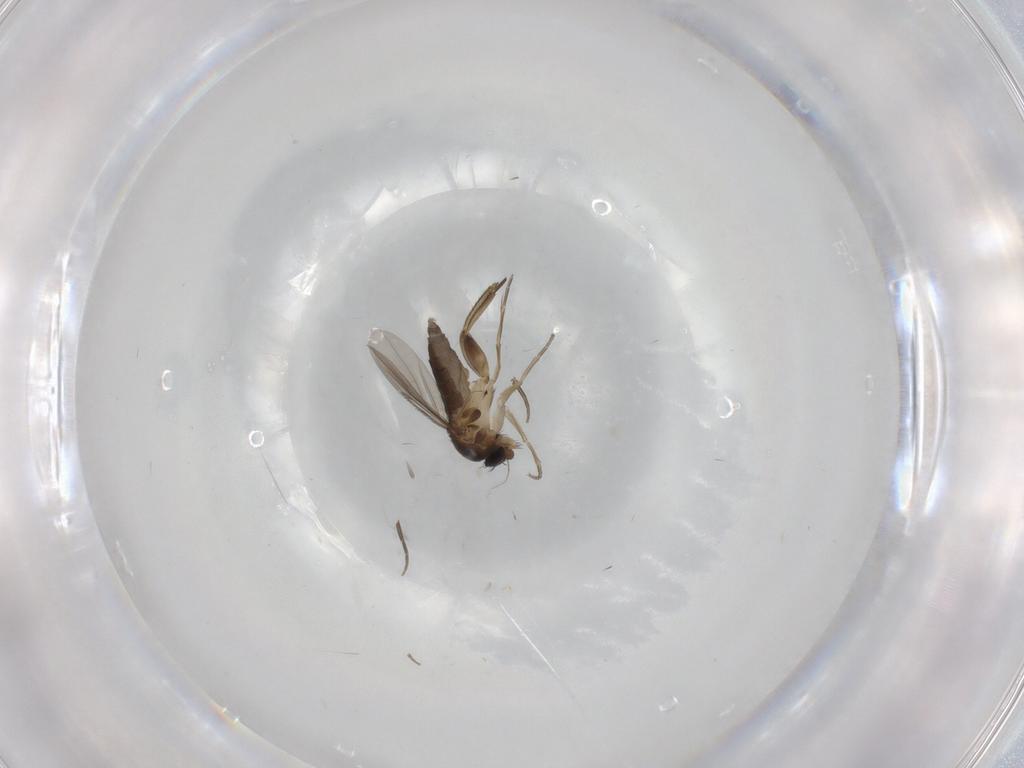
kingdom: Animalia
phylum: Arthropoda
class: Insecta
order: Diptera
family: Phoridae
